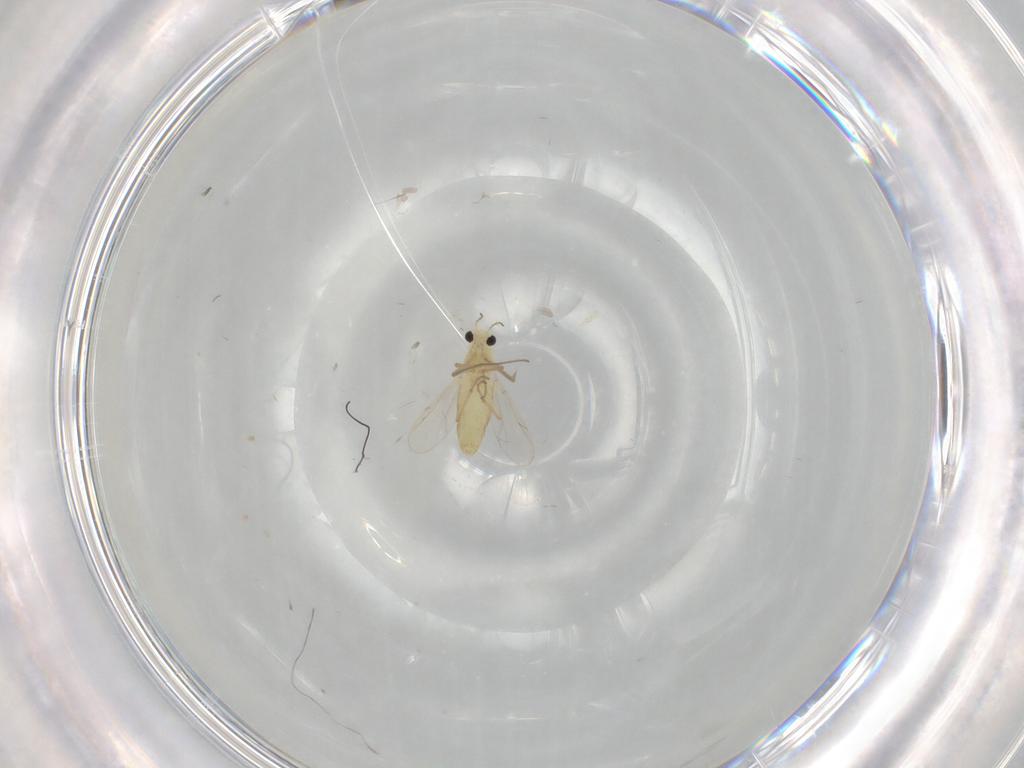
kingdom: Animalia
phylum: Arthropoda
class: Insecta
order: Diptera
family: Chironomidae
